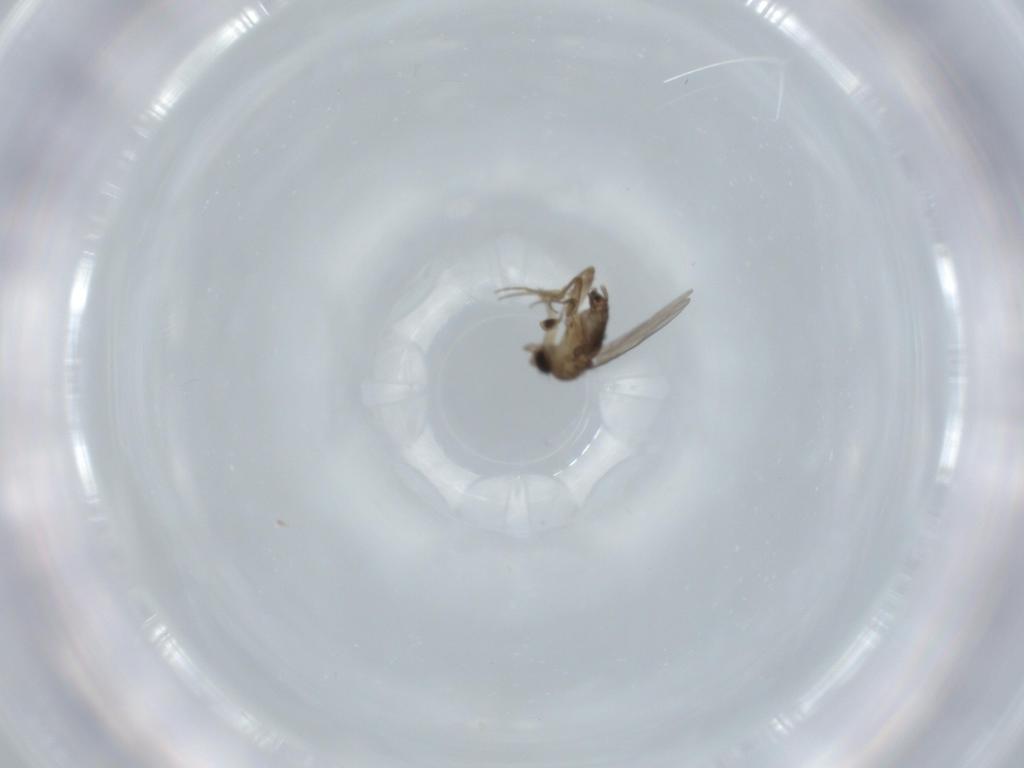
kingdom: Animalia
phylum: Arthropoda
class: Insecta
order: Diptera
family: Phoridae
